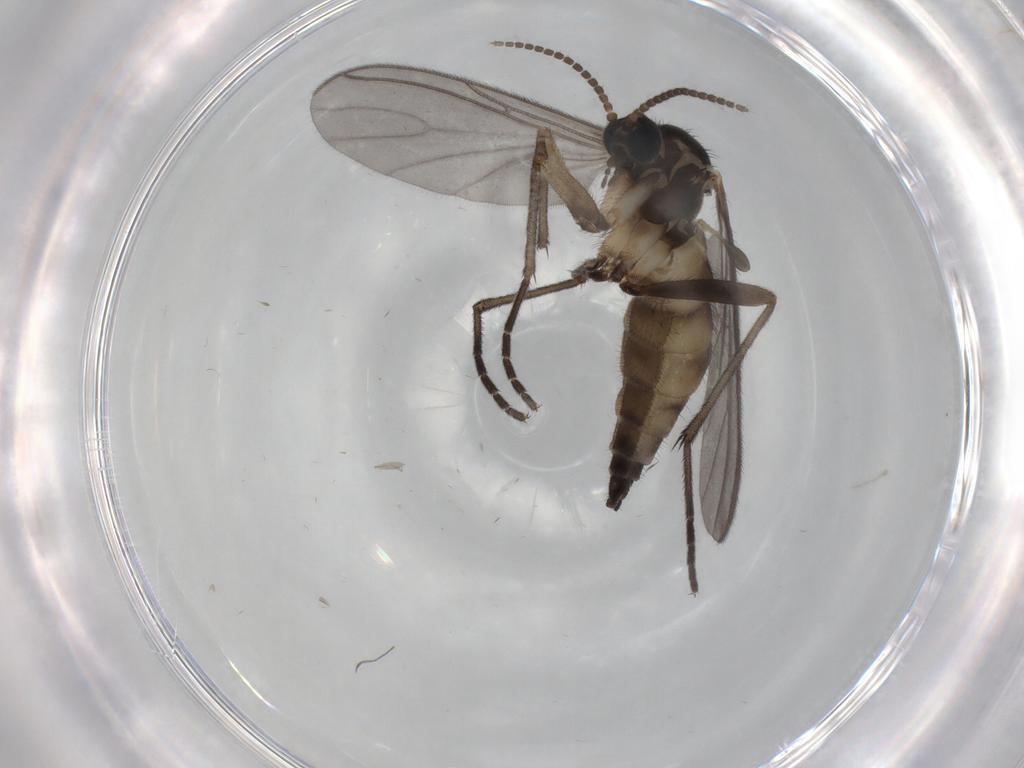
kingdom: Animalia
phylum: Arthropoda
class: Insecta
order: Diptera
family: Sciaridae
